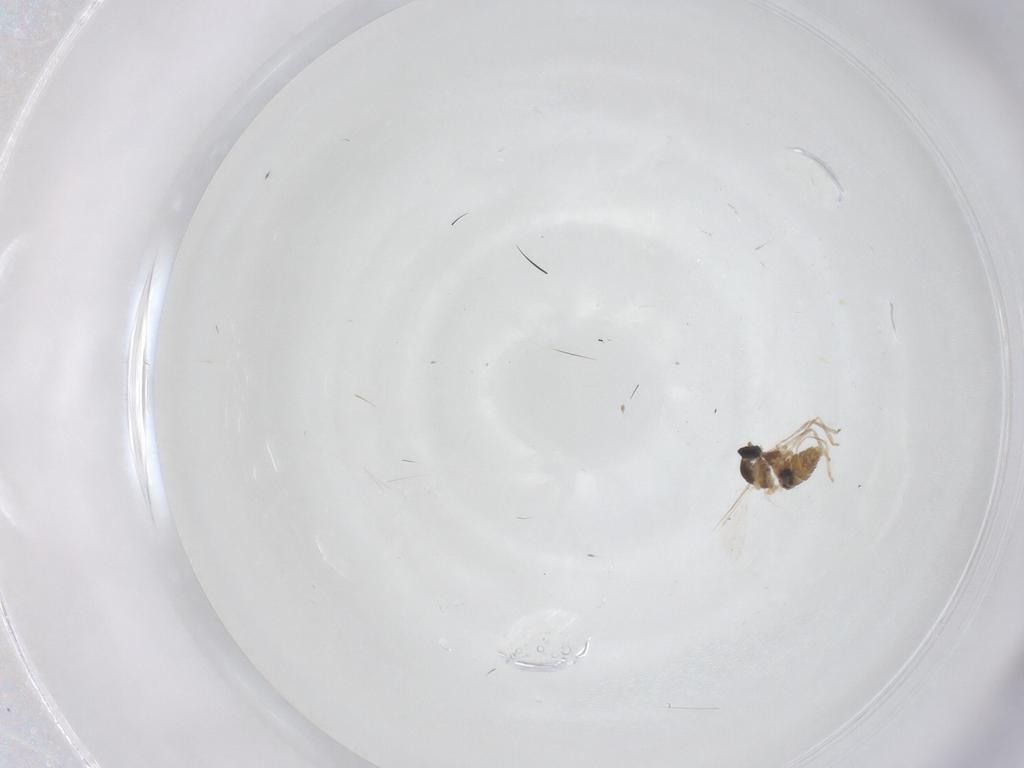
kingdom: Animalia
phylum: Arthropoda
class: Insecta
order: Diptera
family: Cecidomyiidae
